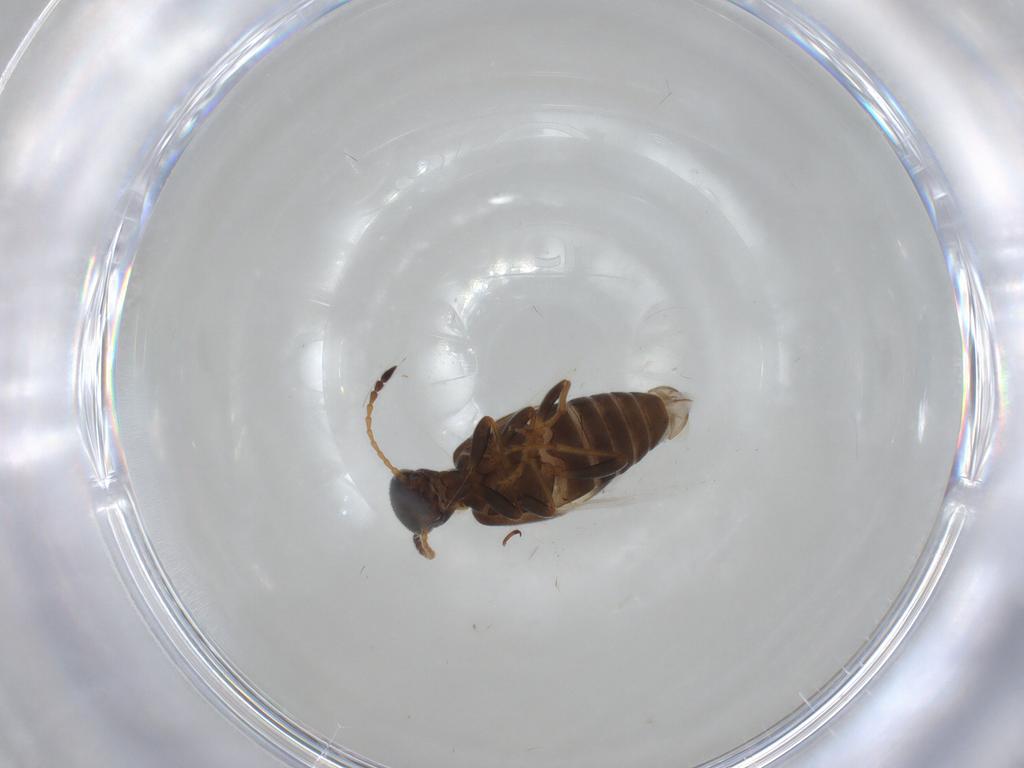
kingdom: Animalia
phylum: Arthropoda
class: Insecta
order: Coleoptera
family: Anthicidae
